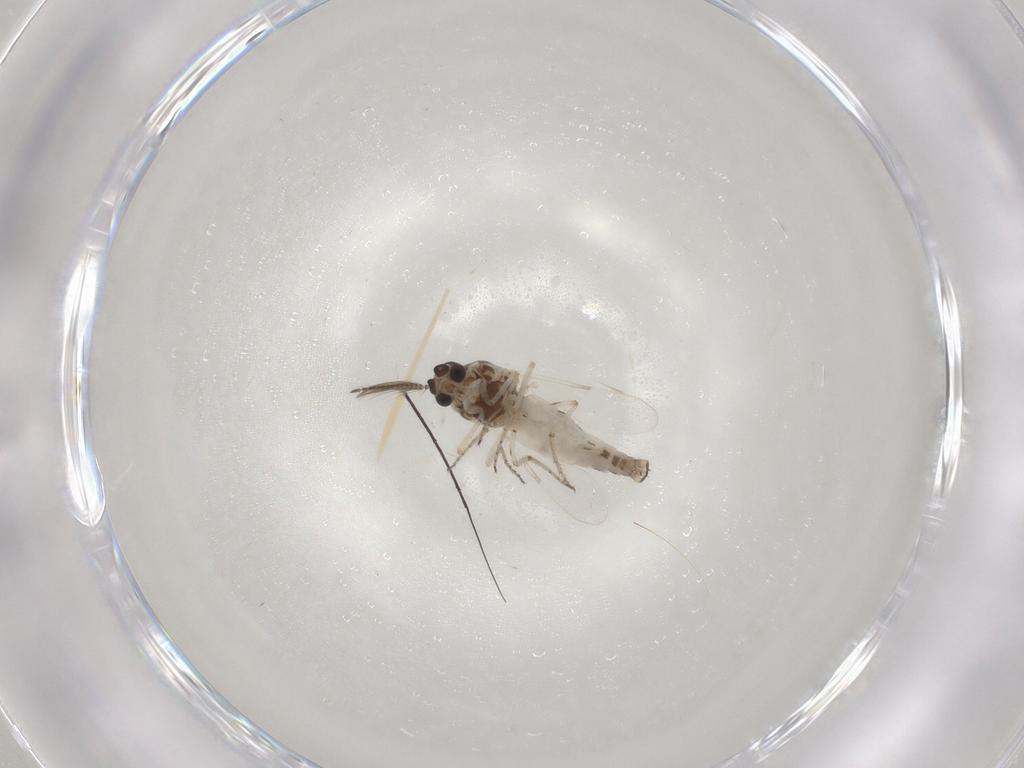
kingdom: Animalia
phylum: Arthropoda
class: Insecta
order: Diptera
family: Ceratopogonidae
